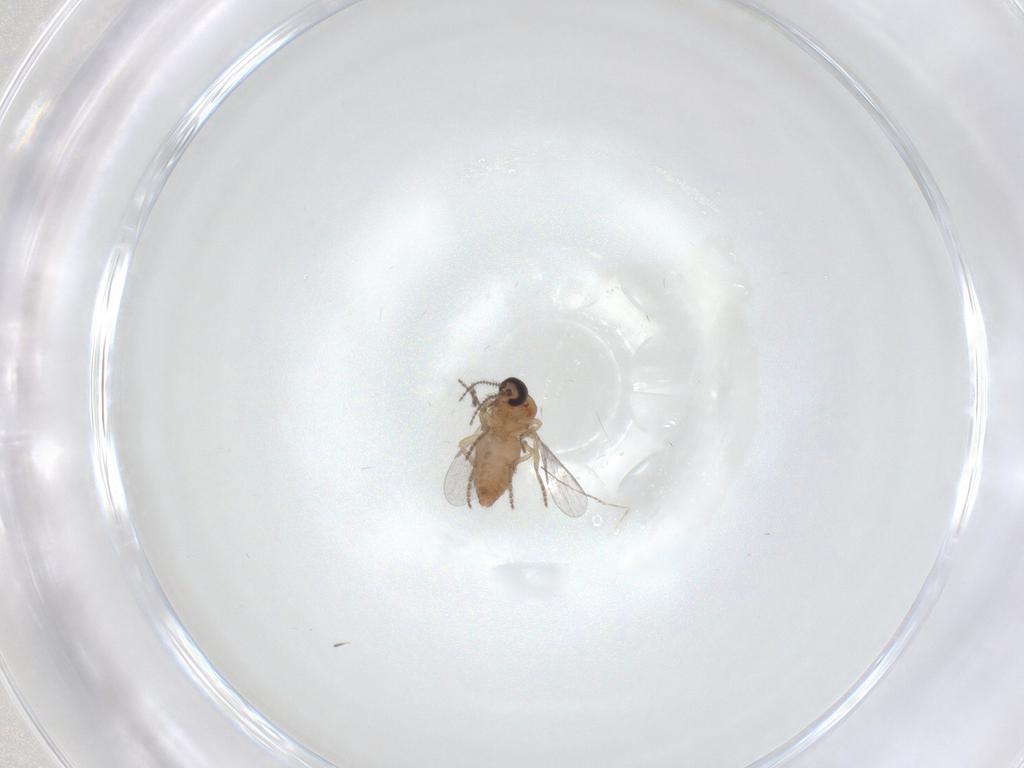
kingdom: Animalia
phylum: Arthropoda
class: Insecta
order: Diptera
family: Ceratopogonidae
